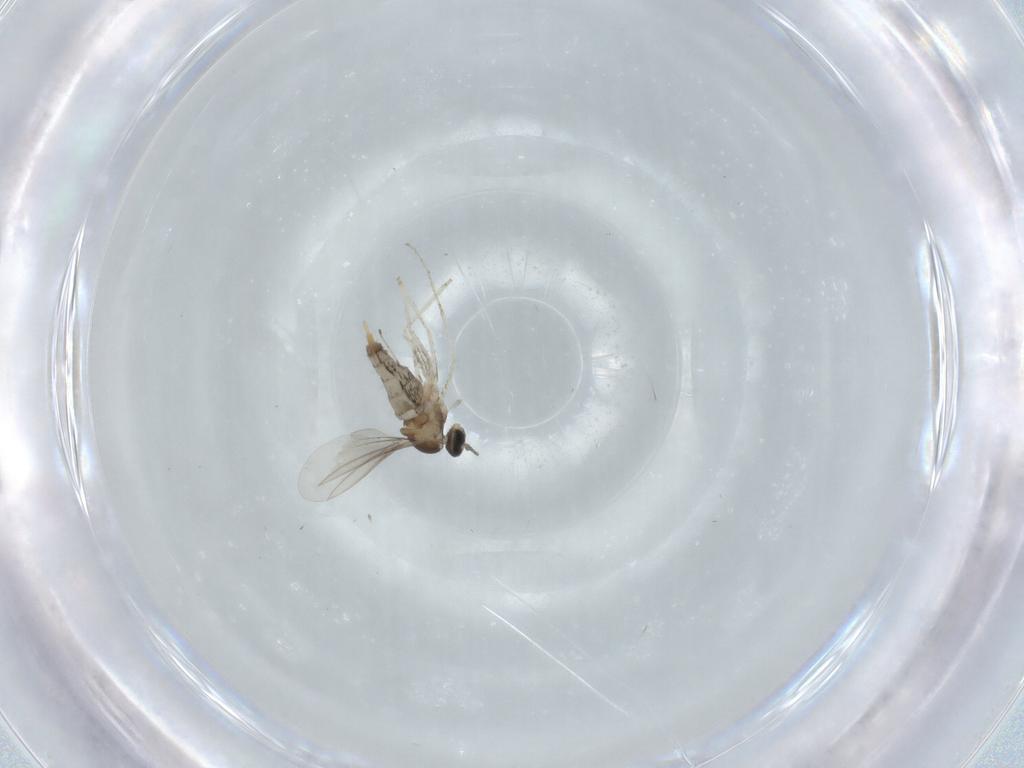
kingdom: Animalia
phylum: Arthropoda
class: Insecta
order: Diptera
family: Cecidomyiidae
